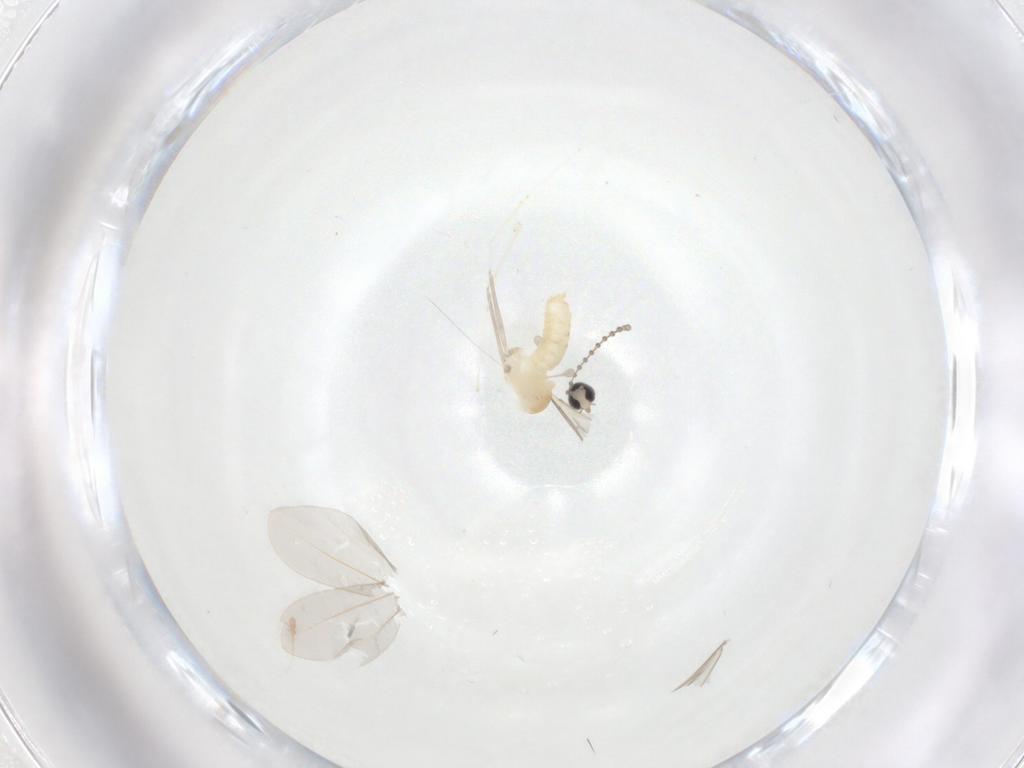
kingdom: Animalia
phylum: Arthropoda
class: Insecta
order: Diptera
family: Cecidomyiidae
